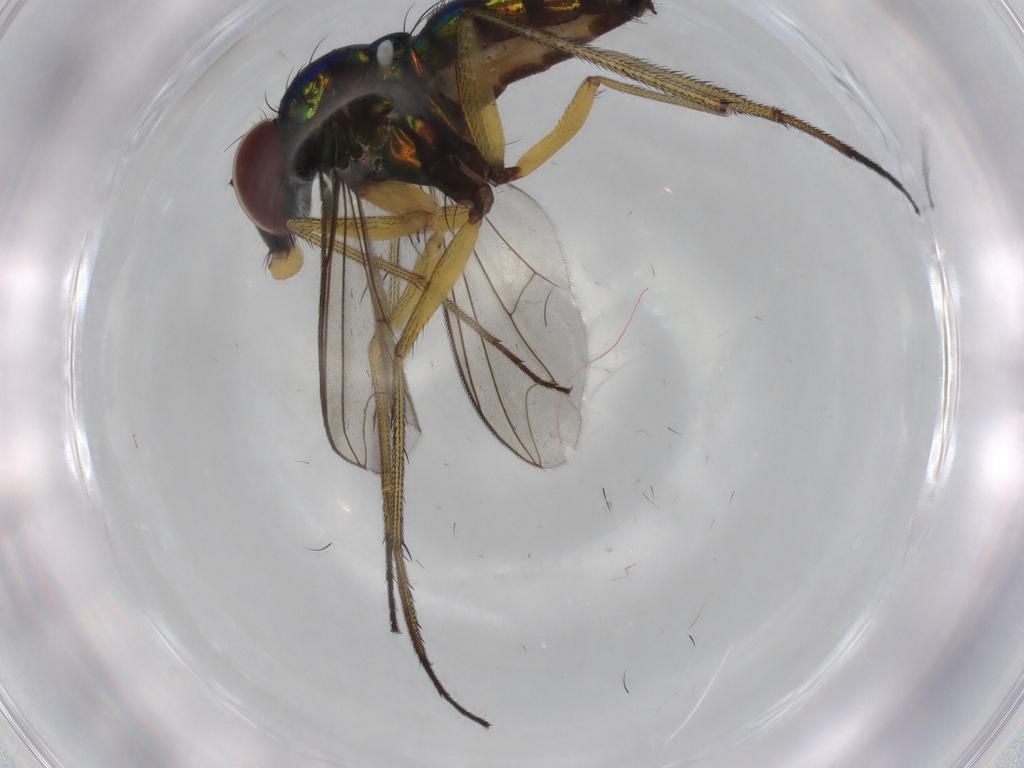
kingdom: Animalia
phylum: Arthropoda
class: Insecta
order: Diptera
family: Dolichopodidae
